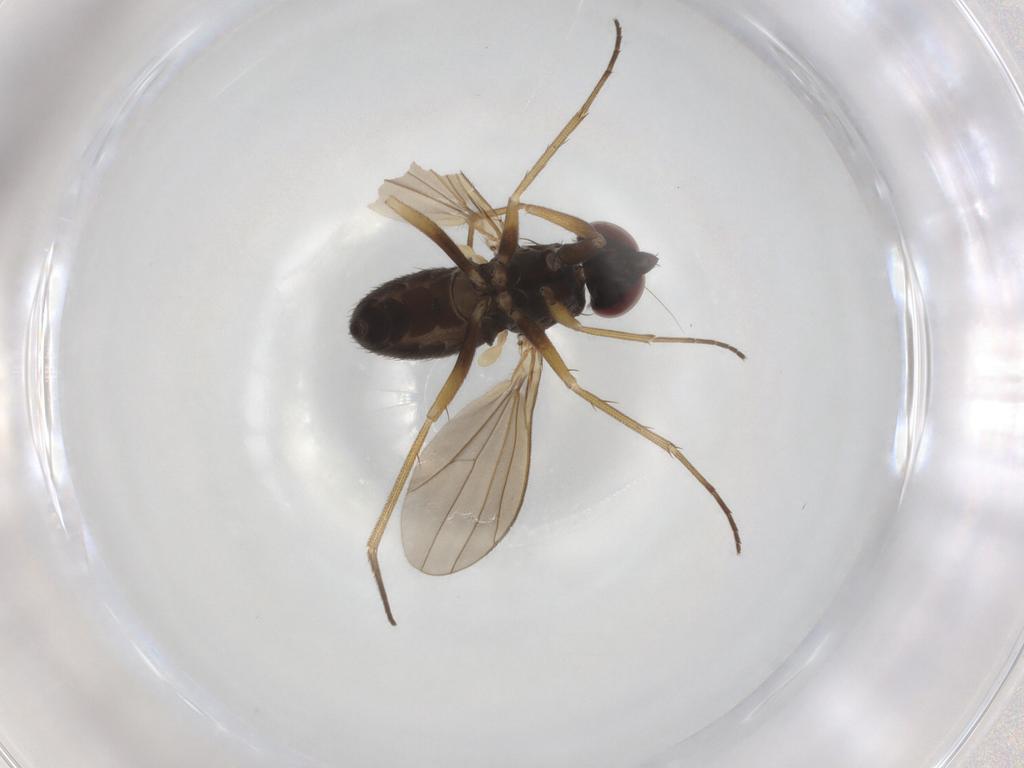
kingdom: Animalia
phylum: Arthropoda
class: Insecta
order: Diptera
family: Dolichopodidae
